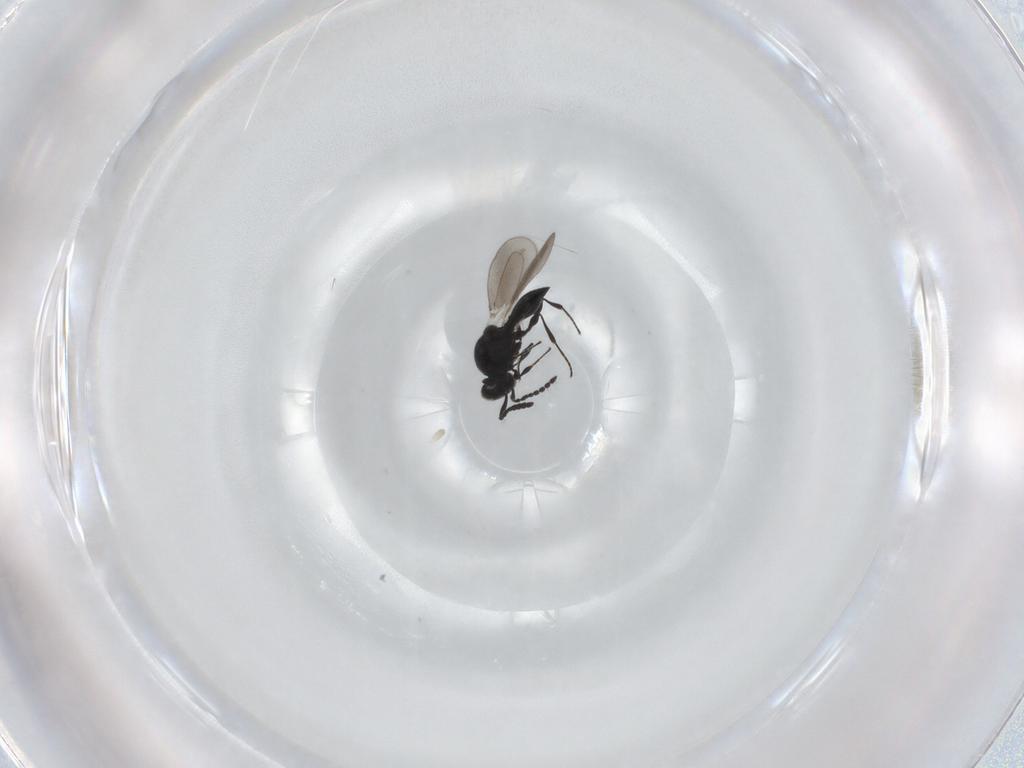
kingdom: Animalia
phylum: Arthropoda
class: Insecta
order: Hymenoptera
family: Platygastridae
